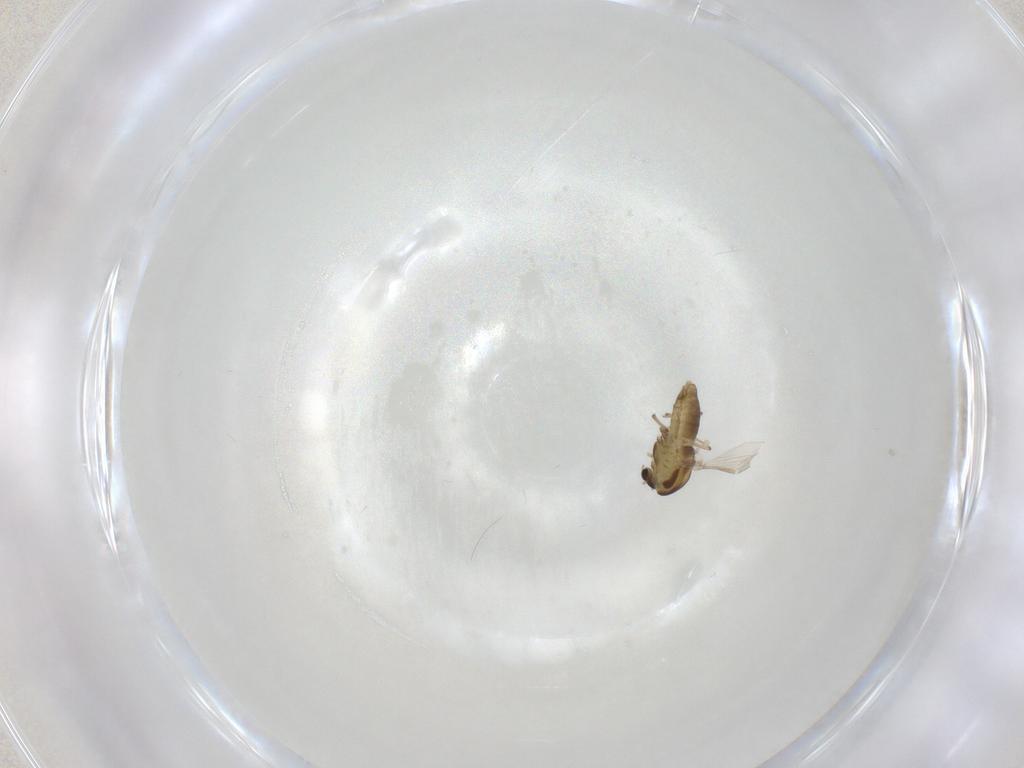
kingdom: Animalia
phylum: Arthropoda
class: Insecta
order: Diptera
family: Chironomidae
